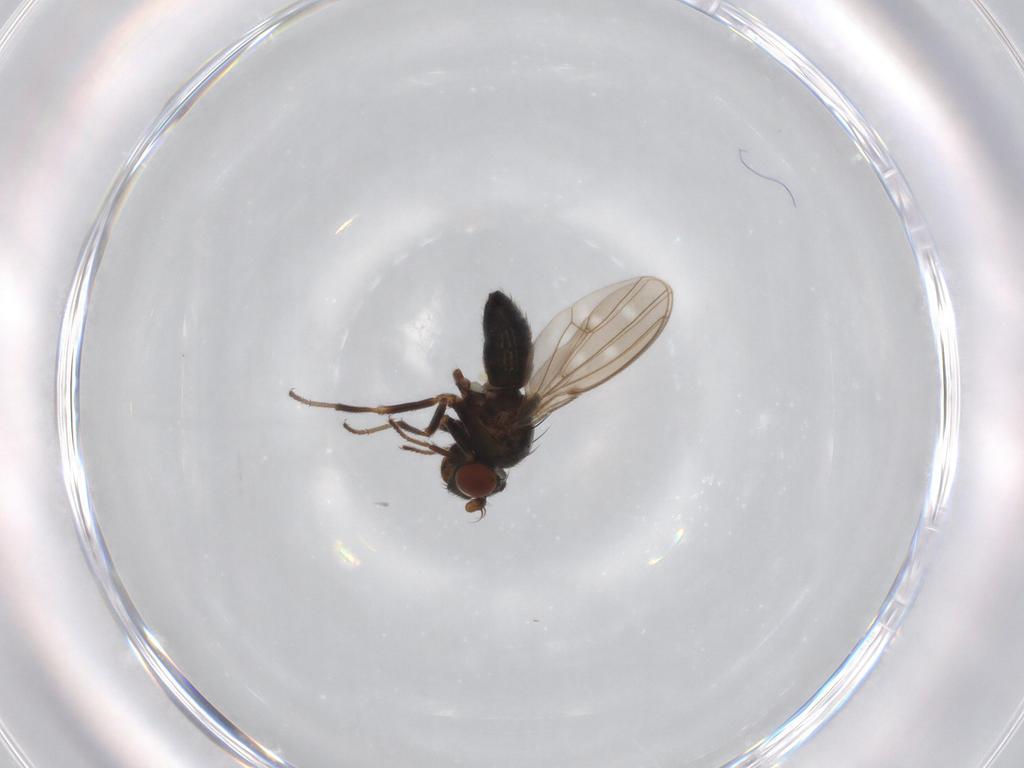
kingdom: Animalia
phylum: Arthropoda
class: Insecta
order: Diptera
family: Ephydridae
